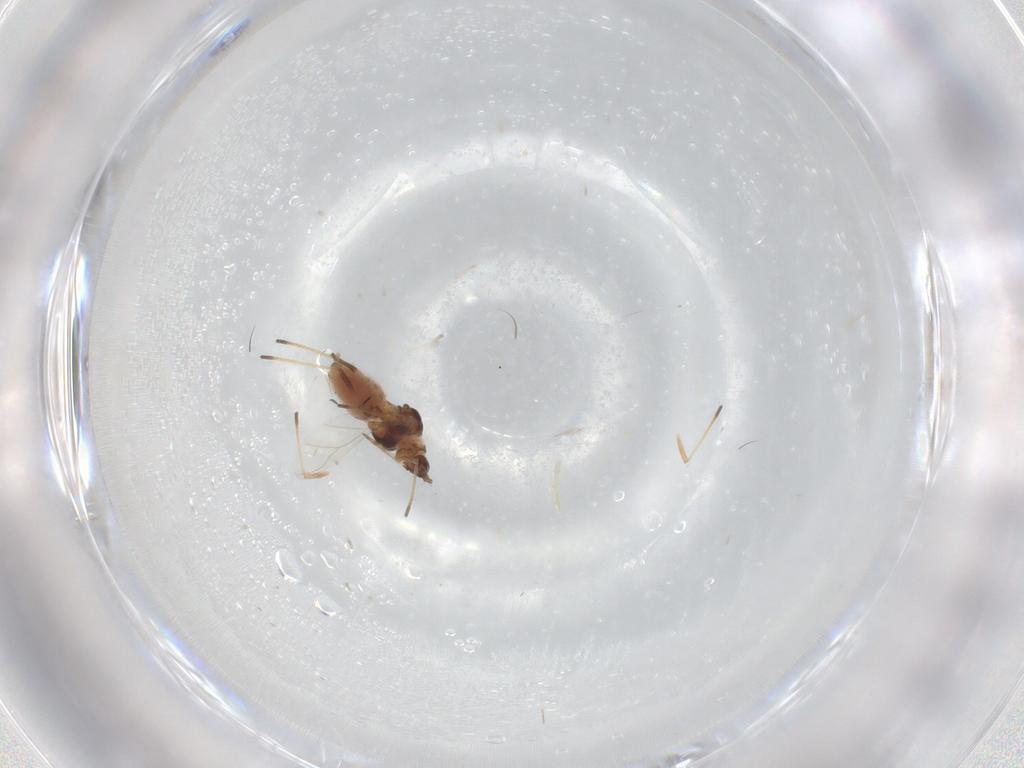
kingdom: Animalia
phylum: Arthropoda
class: Insecta
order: Hemiptera
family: Aphididae
